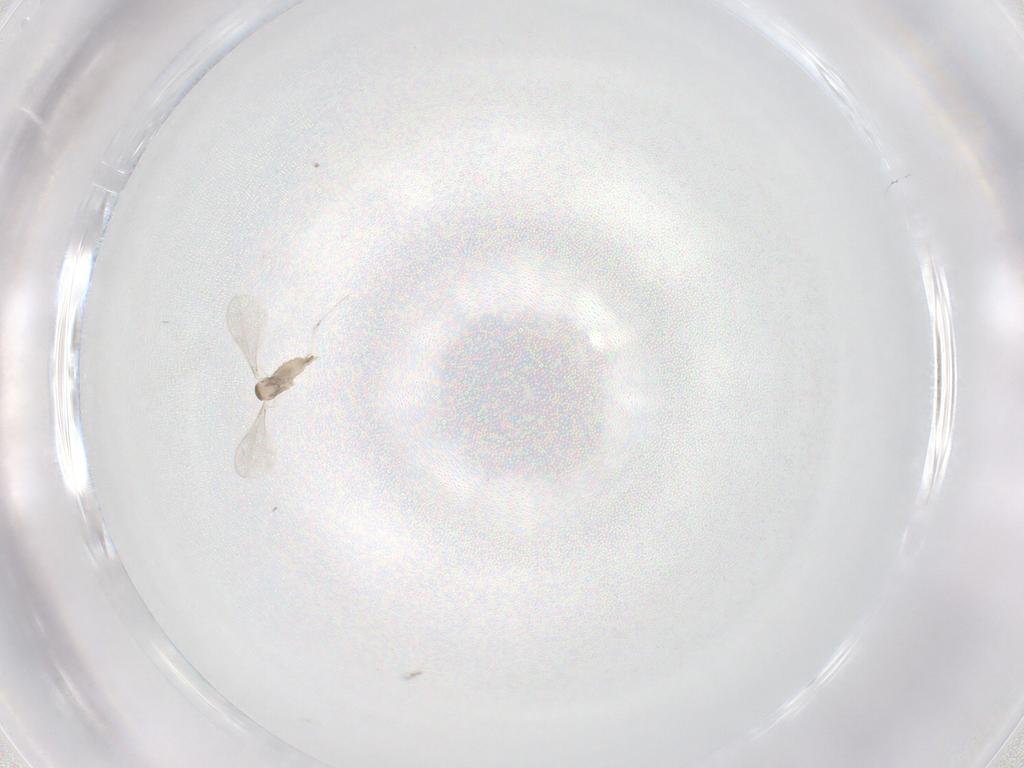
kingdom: Animalia
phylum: Arthropoda
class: Insecta
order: Diptera
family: Cecidomyiidae
